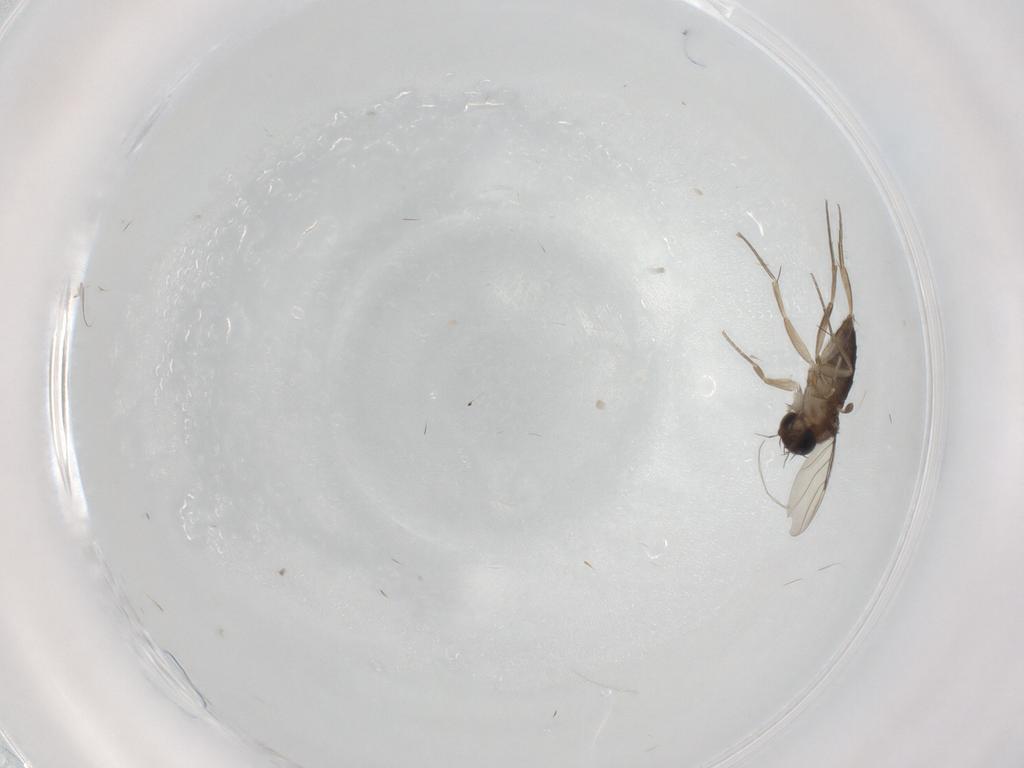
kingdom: Animalia
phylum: Arthropoda
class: Insecta
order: Diptera
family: Phoridae
